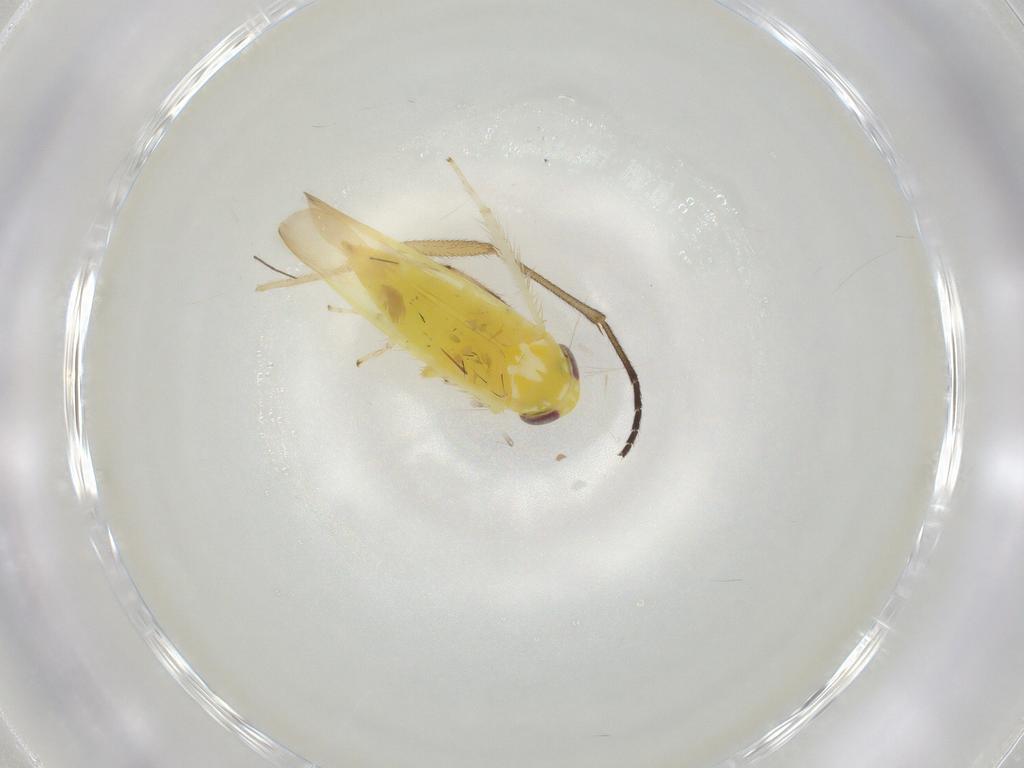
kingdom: Animalia
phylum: Arthropoda
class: Insecta
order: Hemiptera
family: Cicadellidae
